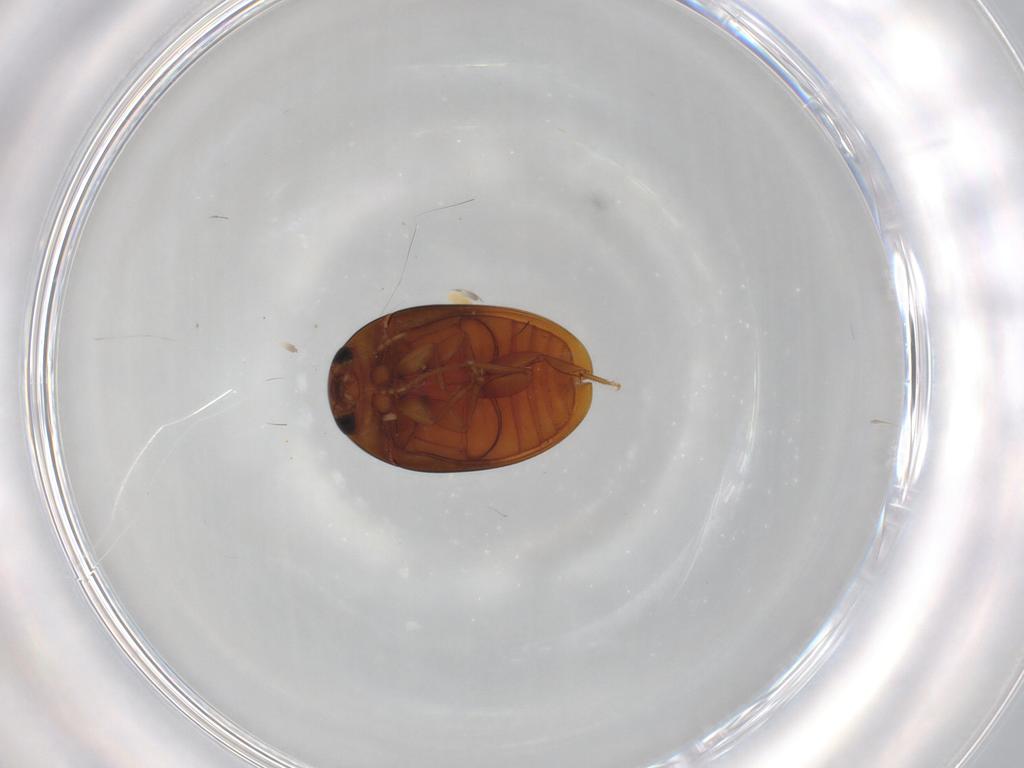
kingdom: Animalia
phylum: Arthropoda
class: Insecta
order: Coleoptera
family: Phalacridae
